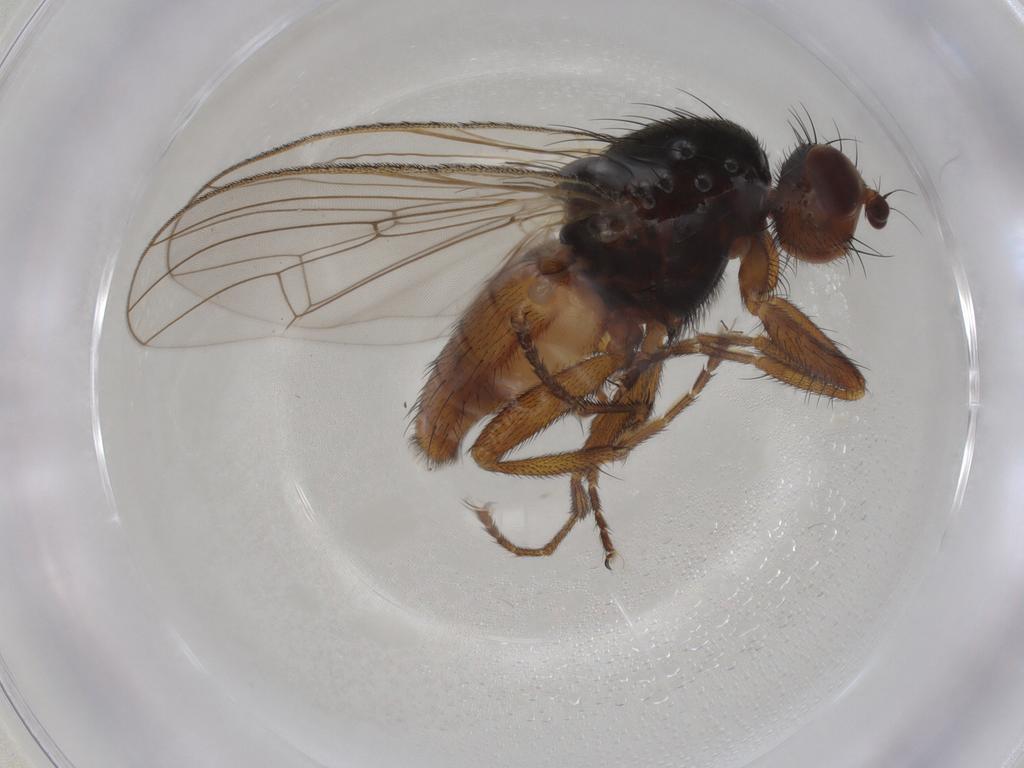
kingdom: Animalia
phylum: Arthropoda
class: Insecta
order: Diptera
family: Heleomyzidae
